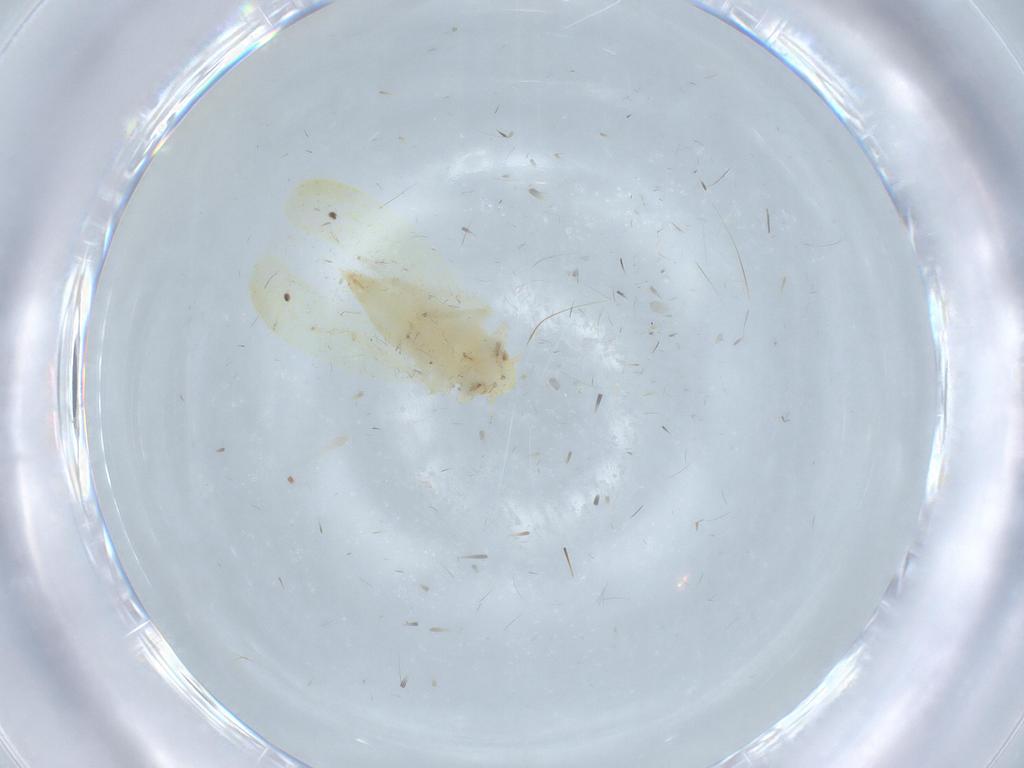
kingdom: Animalia
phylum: Arthropoda
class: Insecta
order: Hemiptera
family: Cicadellidae
